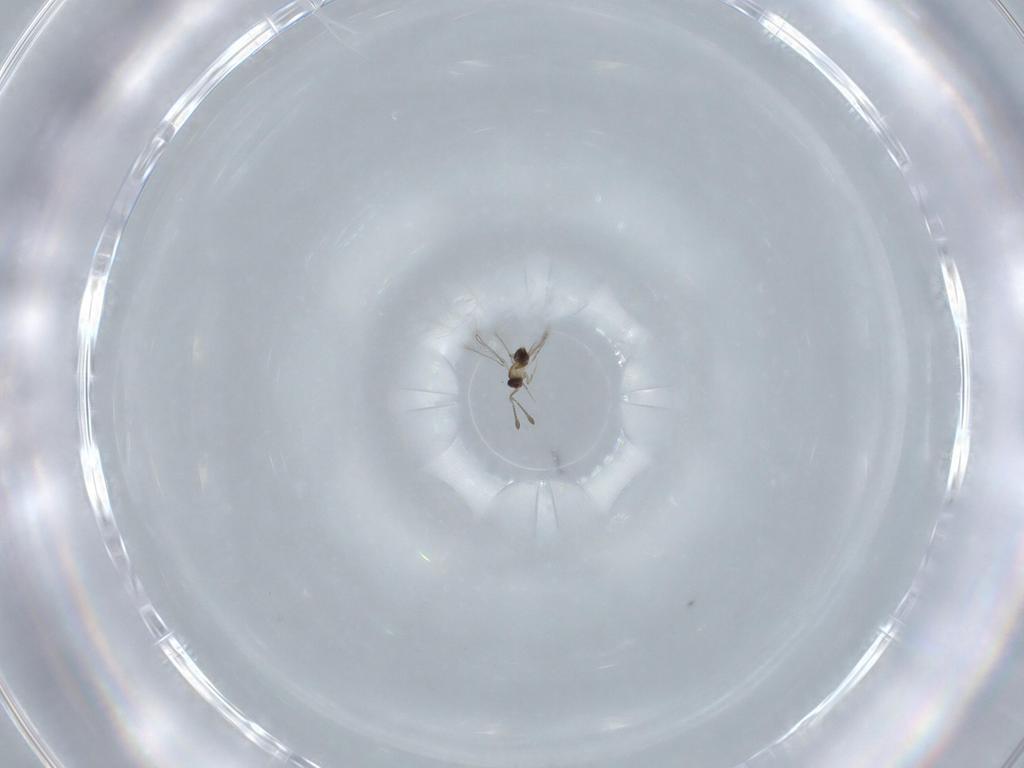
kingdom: Animalia
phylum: Arthropoda
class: Insecta
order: Hymenoptera
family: Mymaridae
